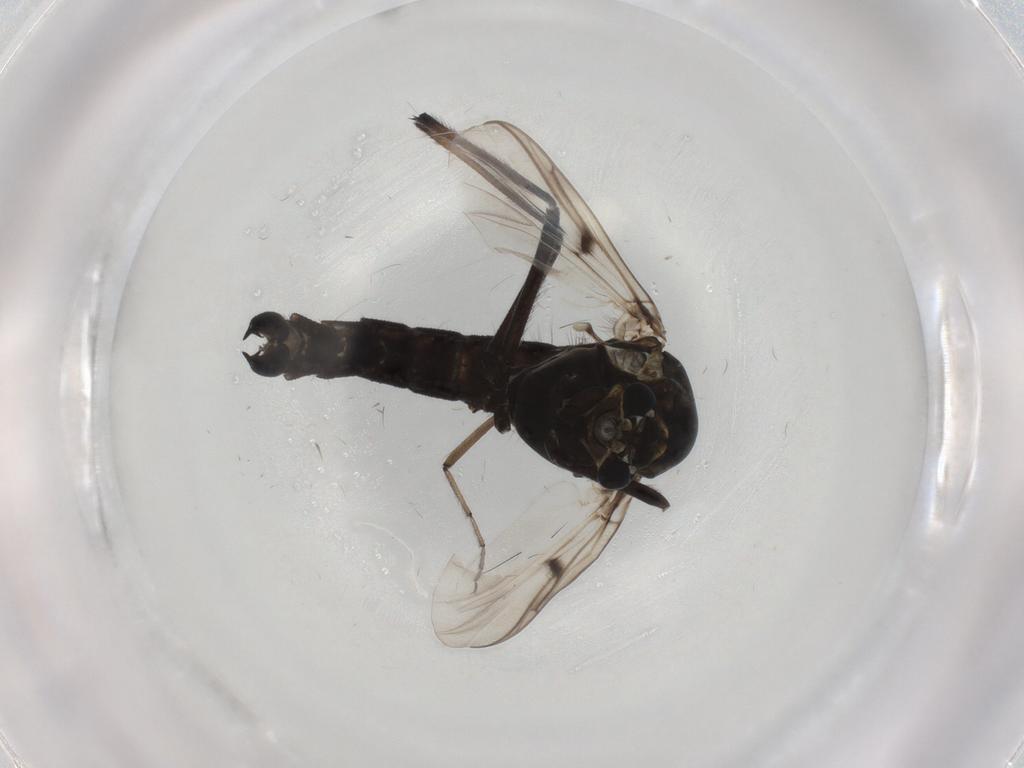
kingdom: Animalia
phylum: Arthropoda
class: Insecta
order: Diptera
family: Chironomidae
